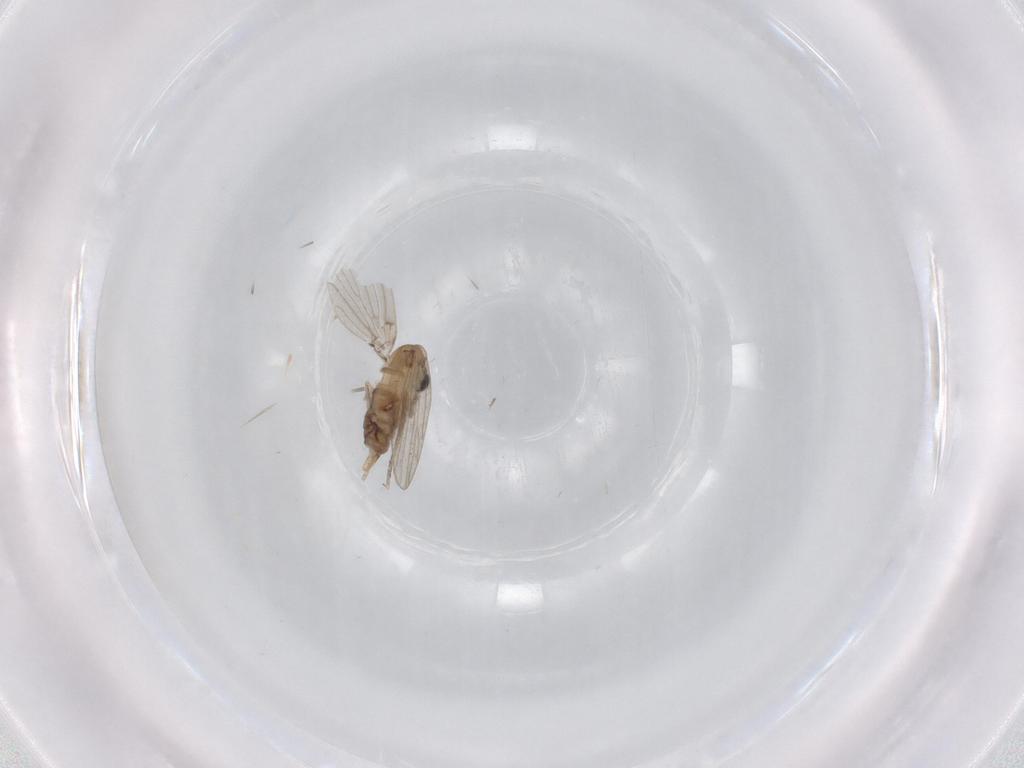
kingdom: Animalia
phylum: Arthropoda
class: Insecta
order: Diptera
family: Psychodidae
